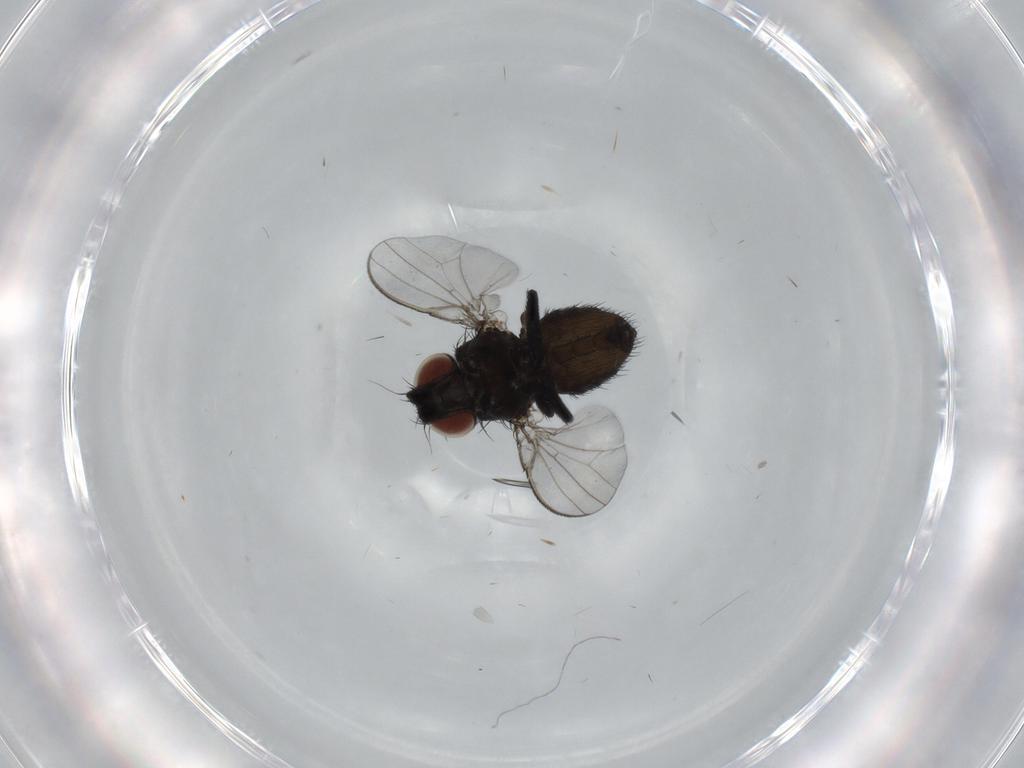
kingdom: Animalia
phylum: Arthropoda
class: Insecta
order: Diptera
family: Milichiidae
